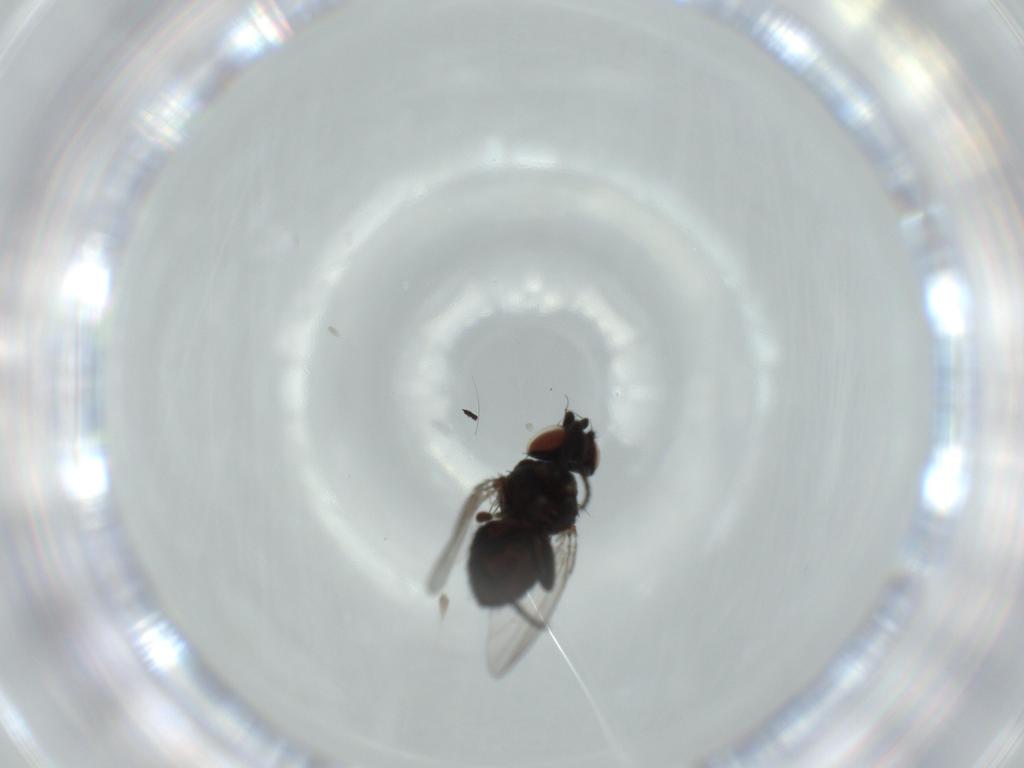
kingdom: Animalia
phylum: Arthropoda
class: Insecta
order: Diptera
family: Milichiidae
